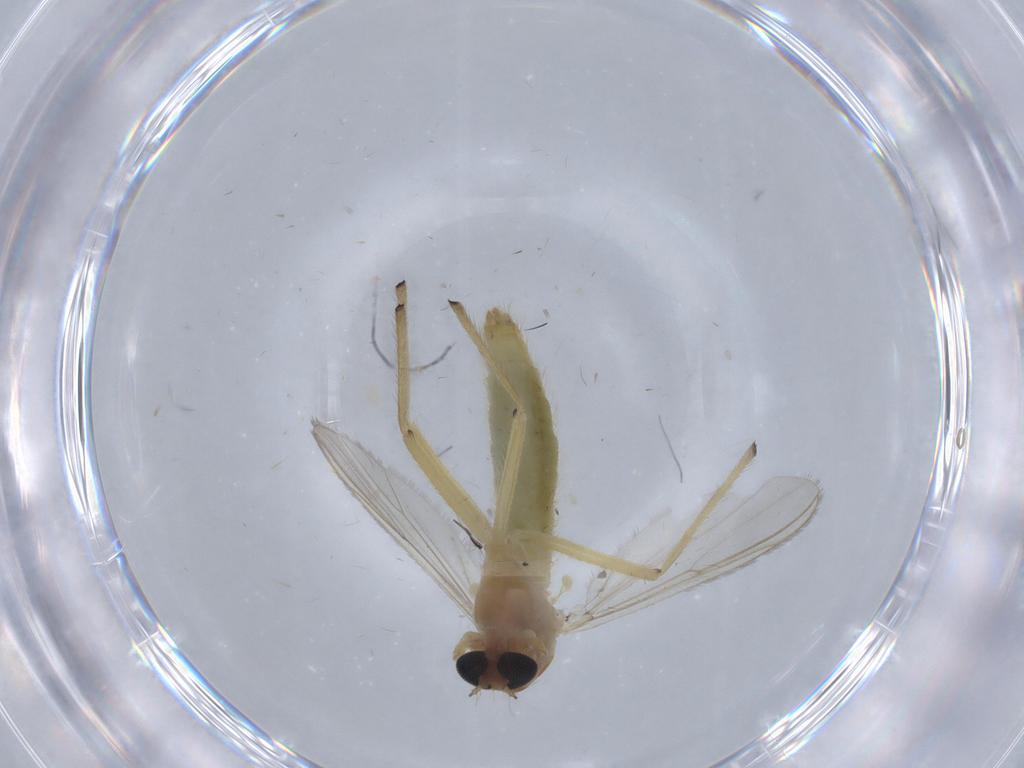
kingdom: Animalia
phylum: Arthropoda
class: Insecta
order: Diptera
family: Chironomidae
